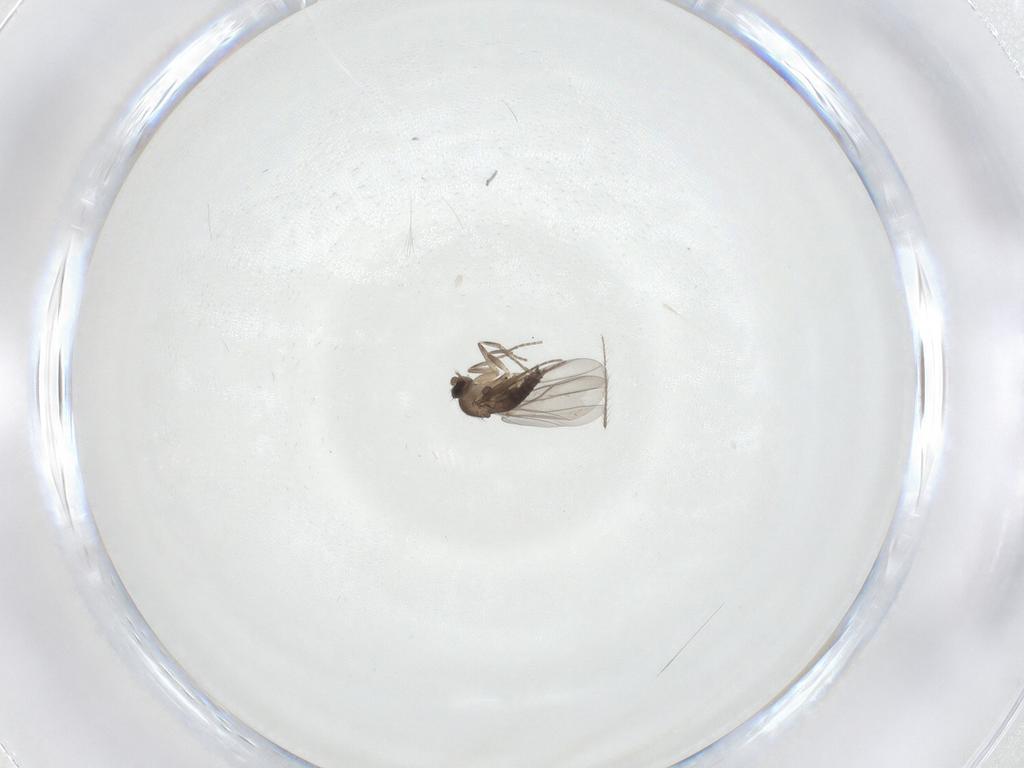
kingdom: Animalia
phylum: Arthropoda
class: Insecta
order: Diptera
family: Phoridae
